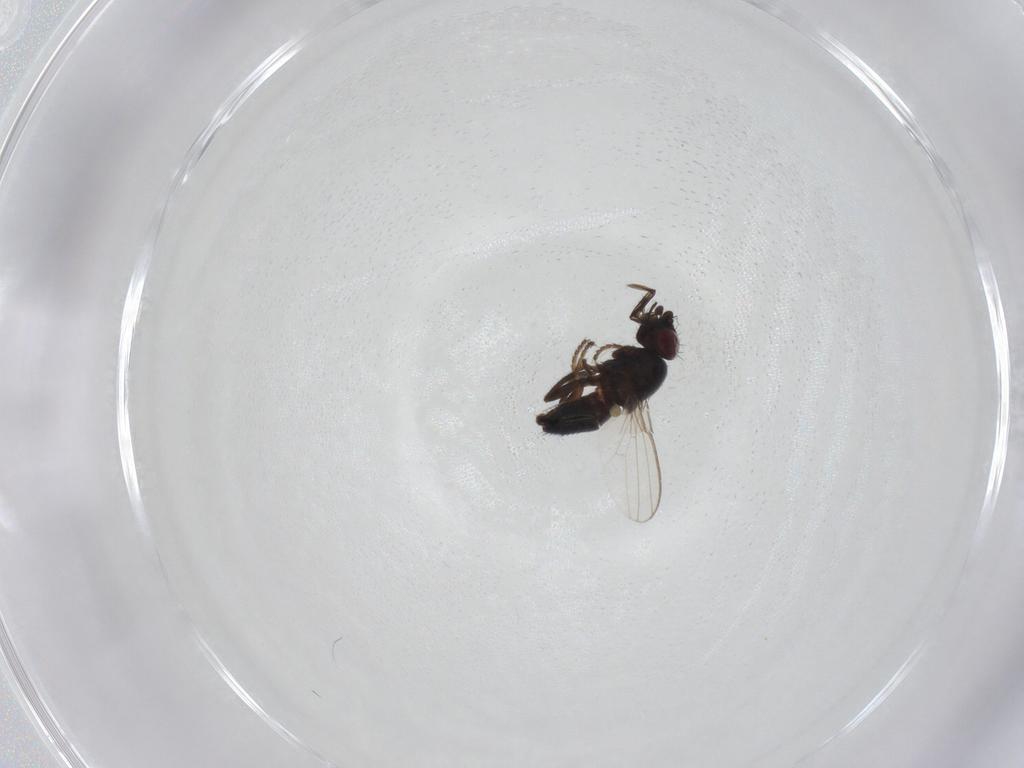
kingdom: Animalia
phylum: Arthropoda
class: Insecta
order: Diptera
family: Milichiidae
